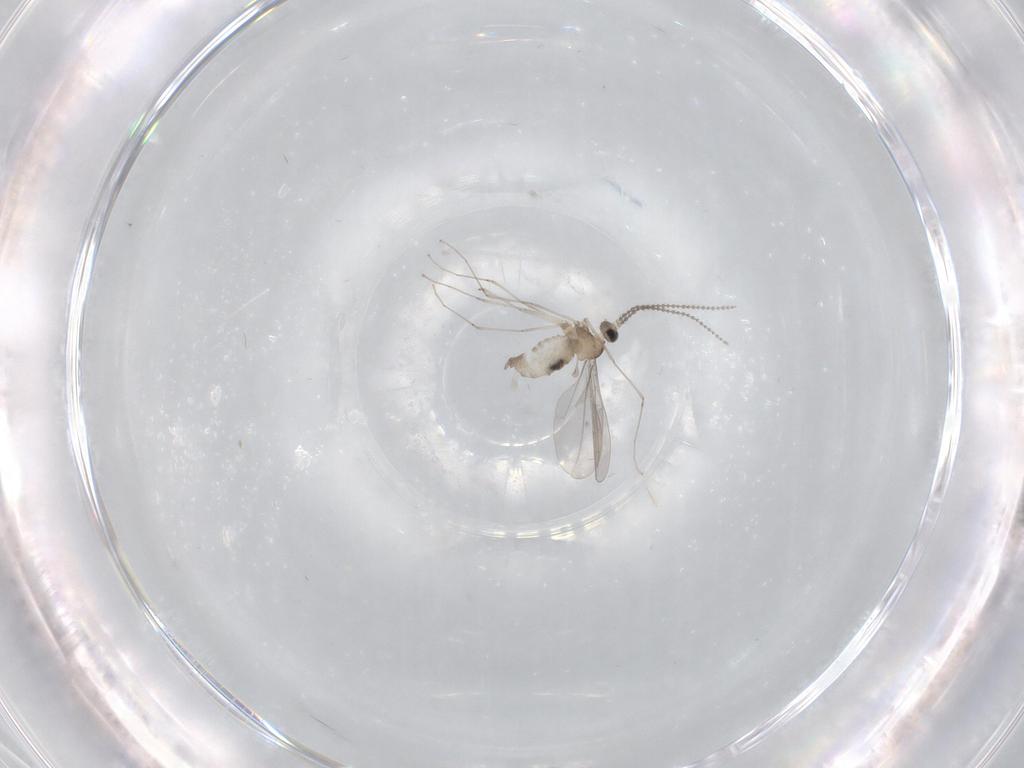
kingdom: Animalia
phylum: Arthropoda
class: Insecta
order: Diptera
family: Cecidomyiidae
